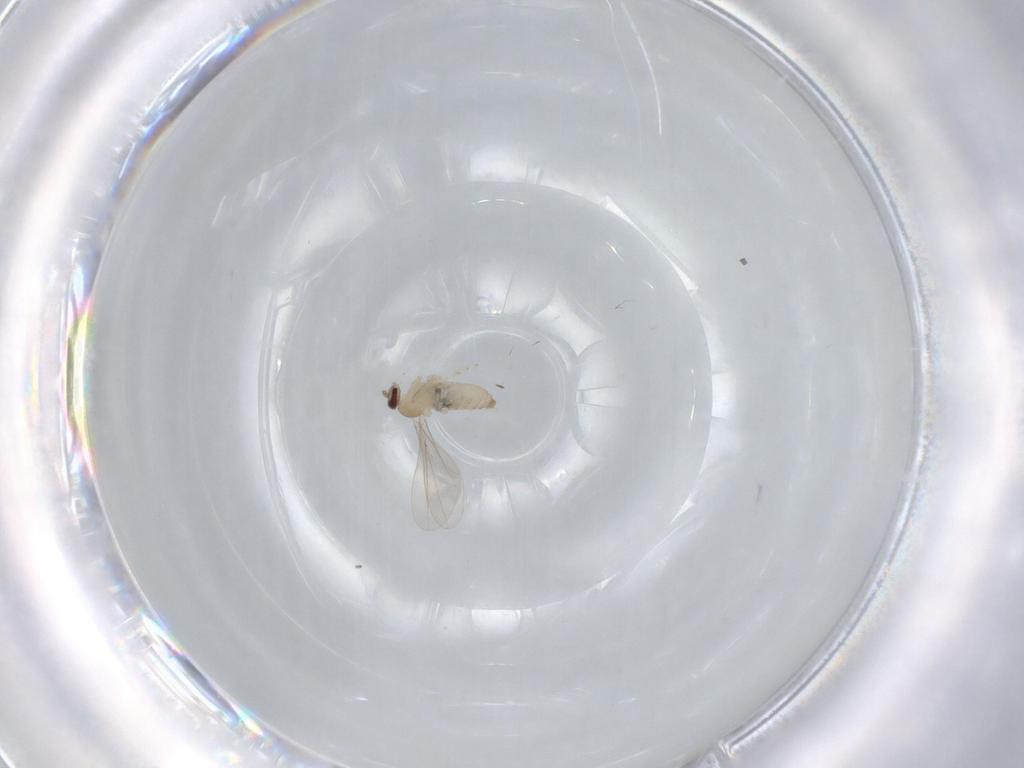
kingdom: Animalia
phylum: Arthropoda
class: Insecta
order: Diptera
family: Cecidomyiidae
